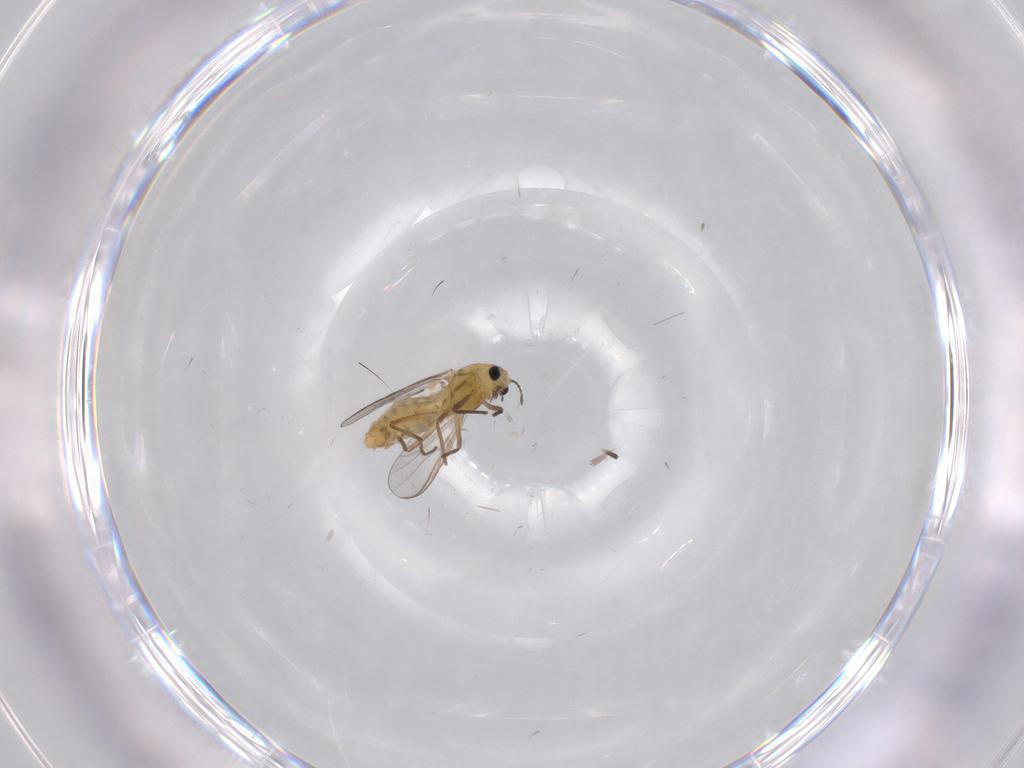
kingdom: Animalia
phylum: Arthropoda
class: Insecta
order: Diptera
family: Chironomidae
